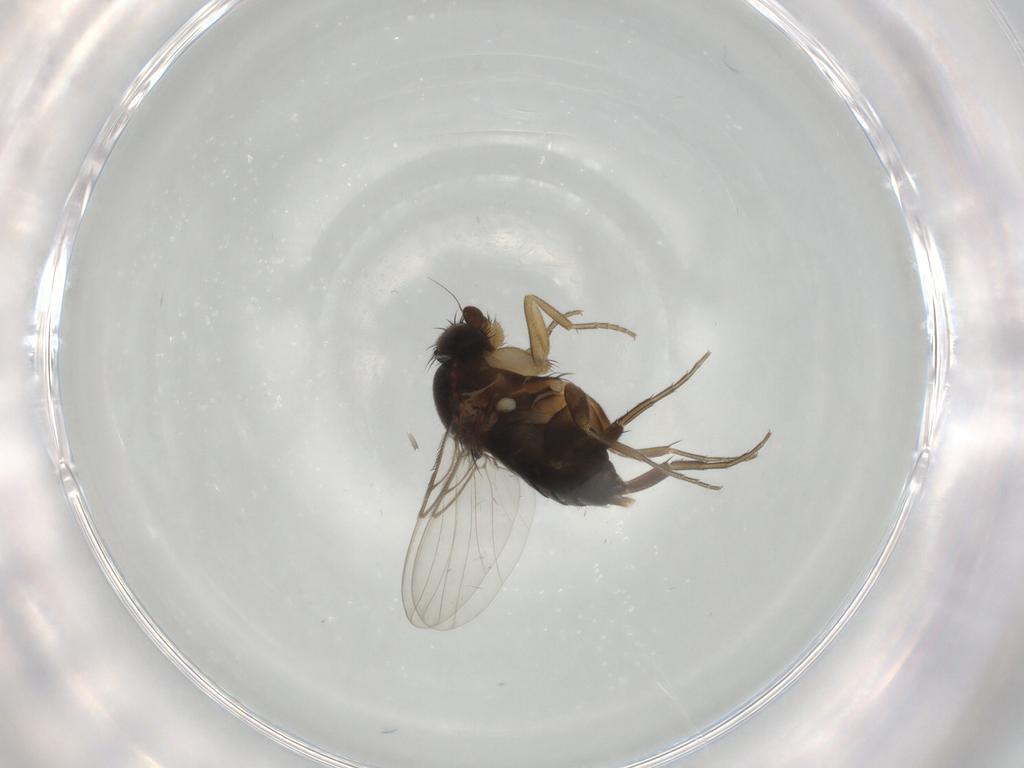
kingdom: Animalia
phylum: Arthropoda
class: Insecta
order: Diptera
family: Phoridae
